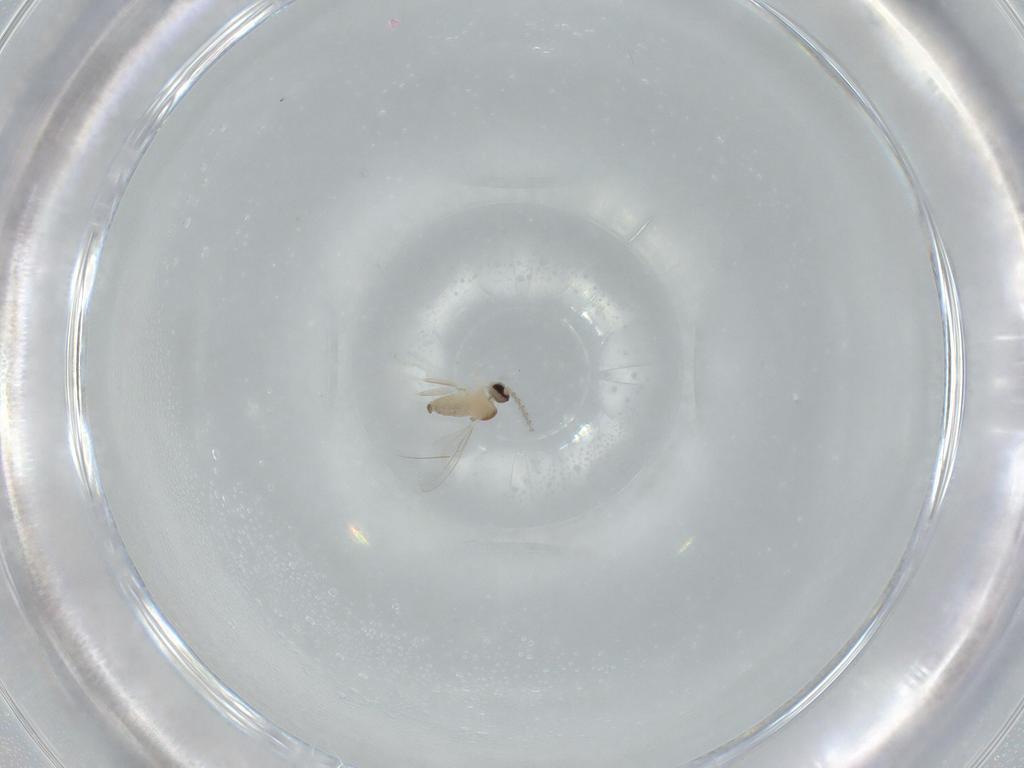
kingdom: Animalia
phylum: Arthropoda
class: Insecta
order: Diptera
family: Cecidomyiidae
